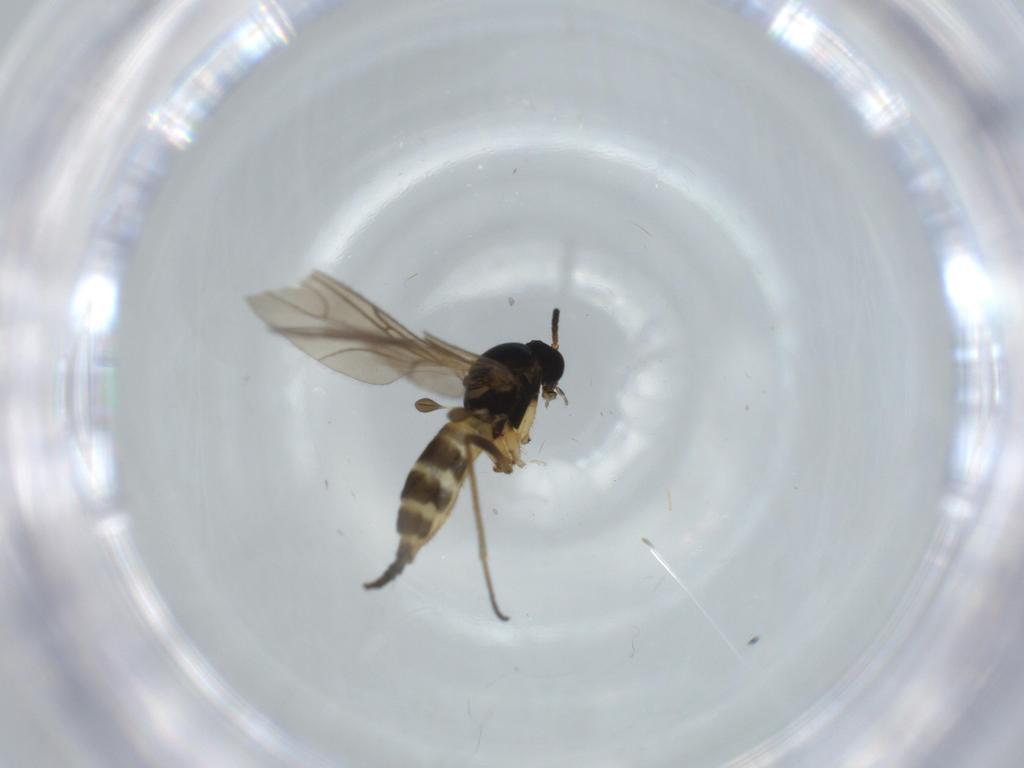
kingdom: Animalia
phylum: Arthropoda
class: Insecta
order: Diptera
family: Sciaridae
